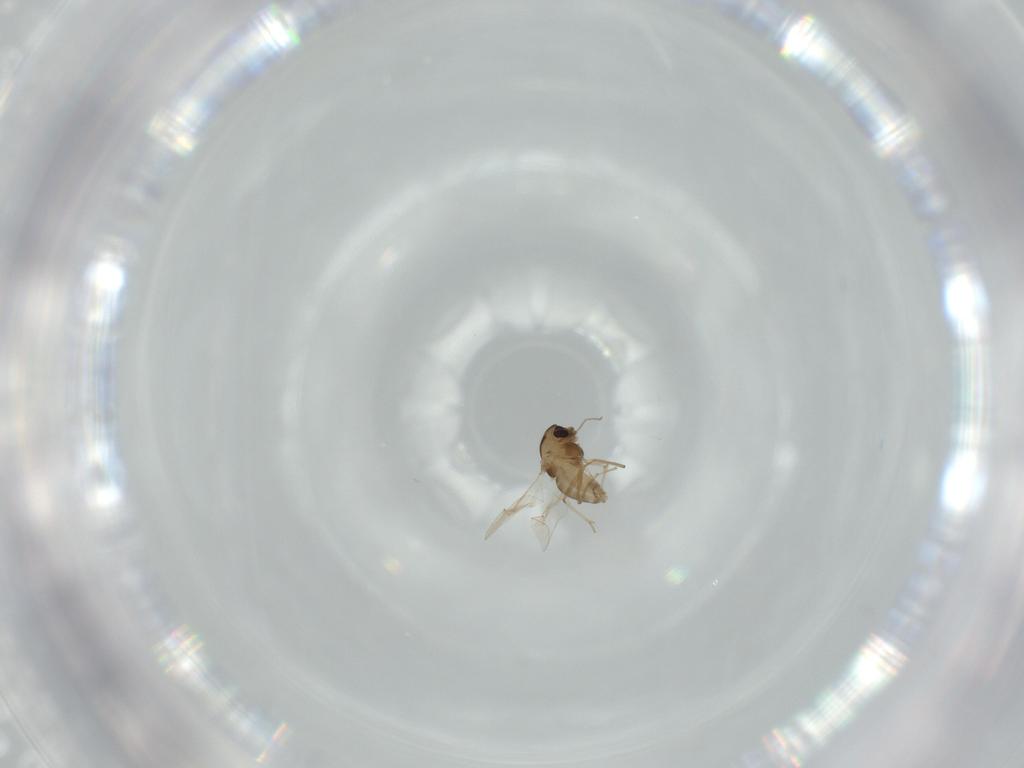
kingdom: Animalia
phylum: Arthropoda
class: Insecta
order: Diptera
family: Chironomidae
